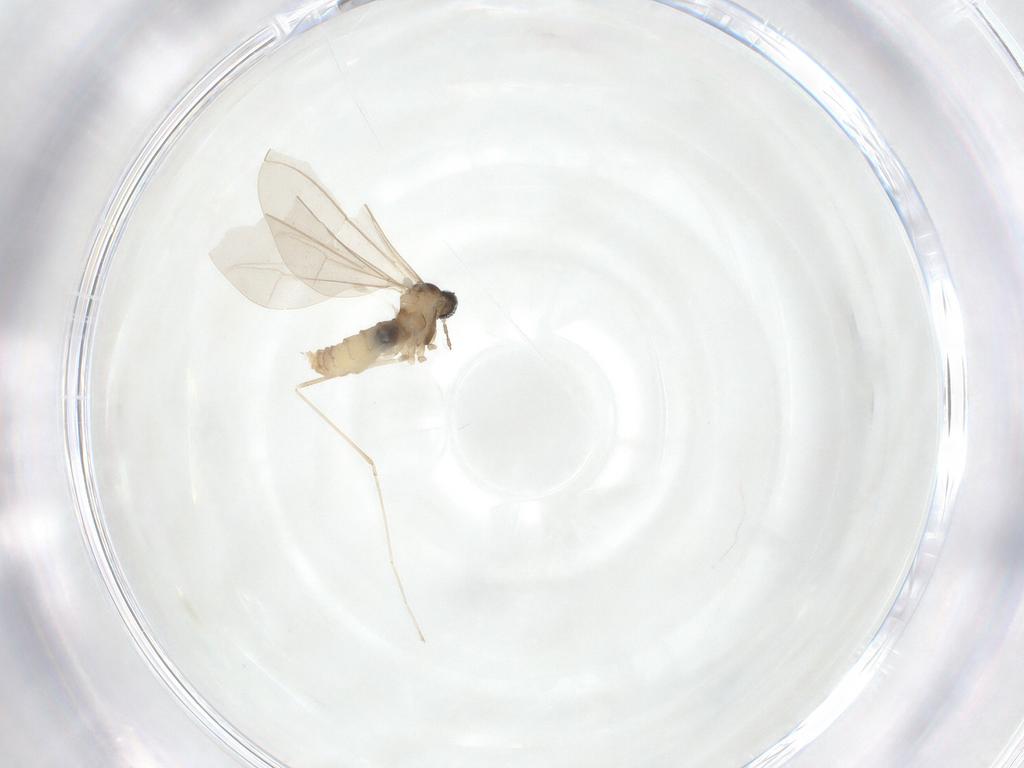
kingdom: Animalia
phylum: Arthropoda
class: Insecta
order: Diptera
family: Cecidomyiidae
